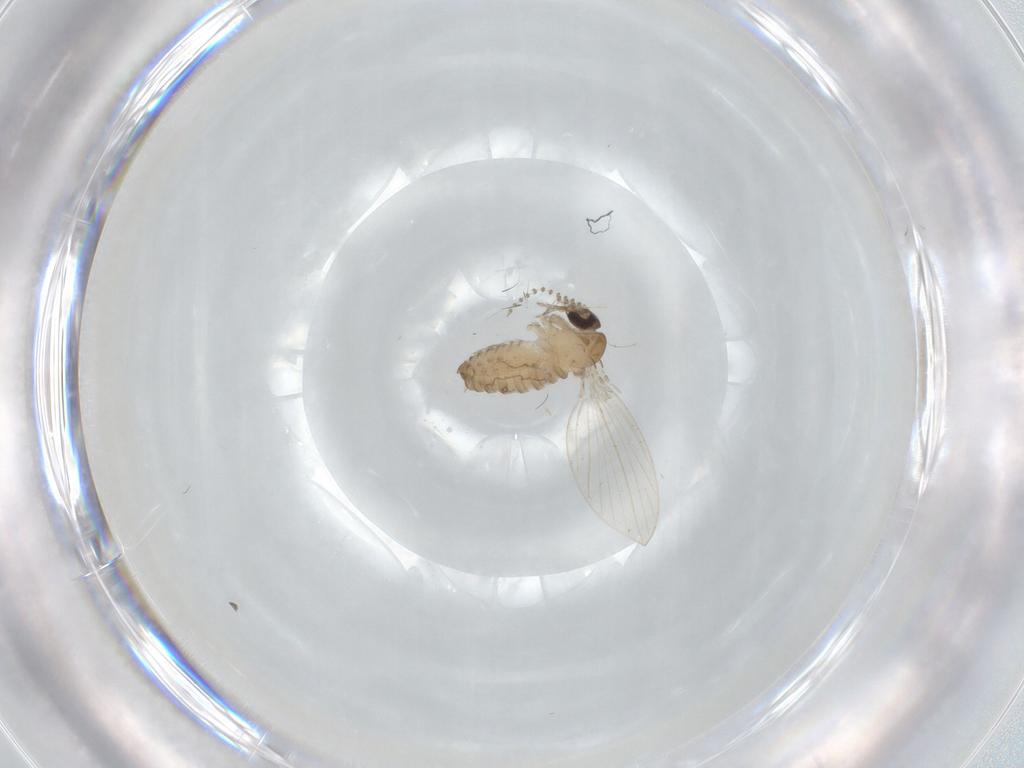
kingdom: Animalia
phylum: Arthropoda
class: Insecta
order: Diptera
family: Psychodidae
